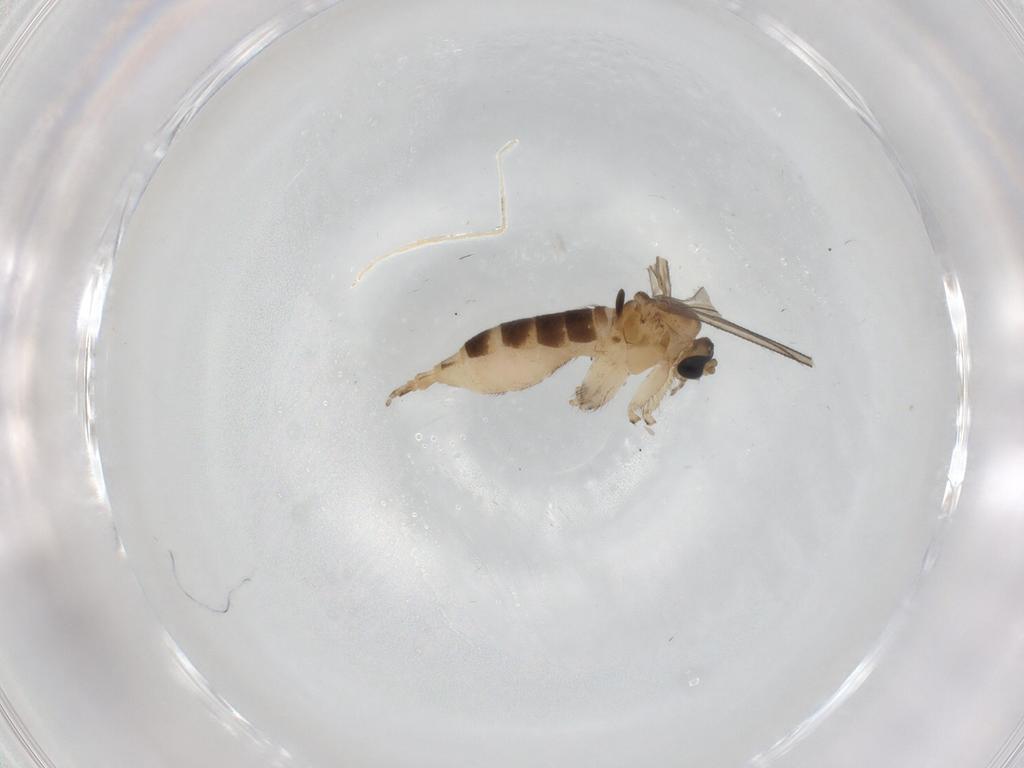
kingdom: Animalia
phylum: Arthropoda
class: Insecta
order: Diptera
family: Sciaridae
